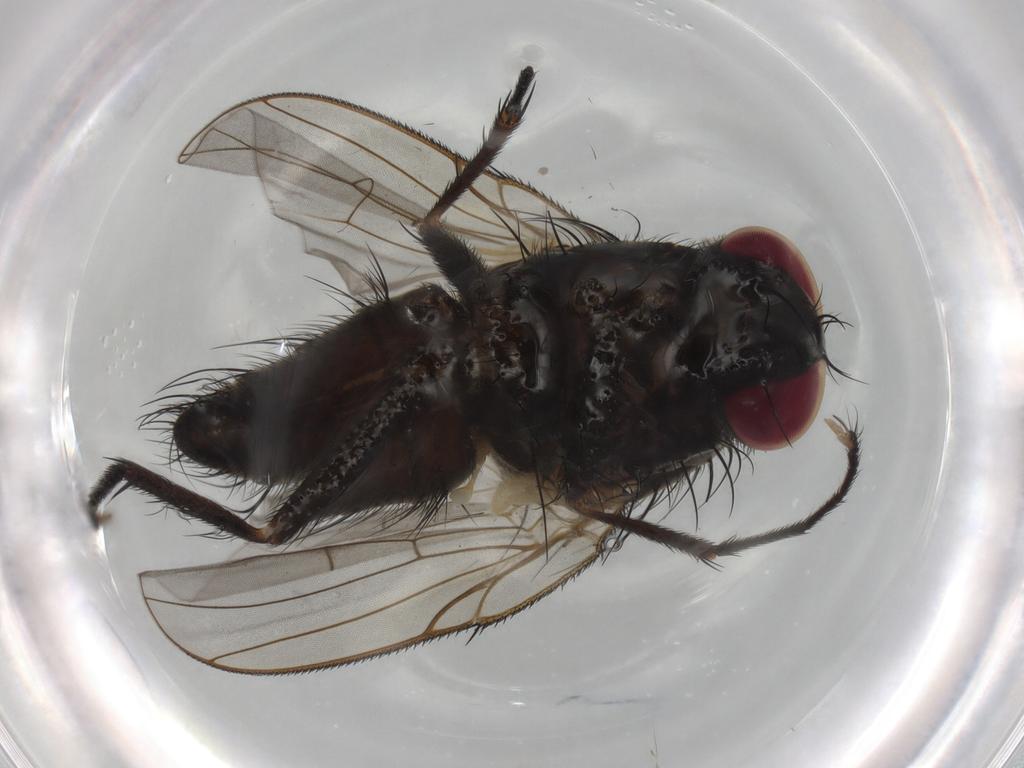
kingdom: Animalia
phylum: Arthropoda
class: Insecta
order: Diptera
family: Muscidae
